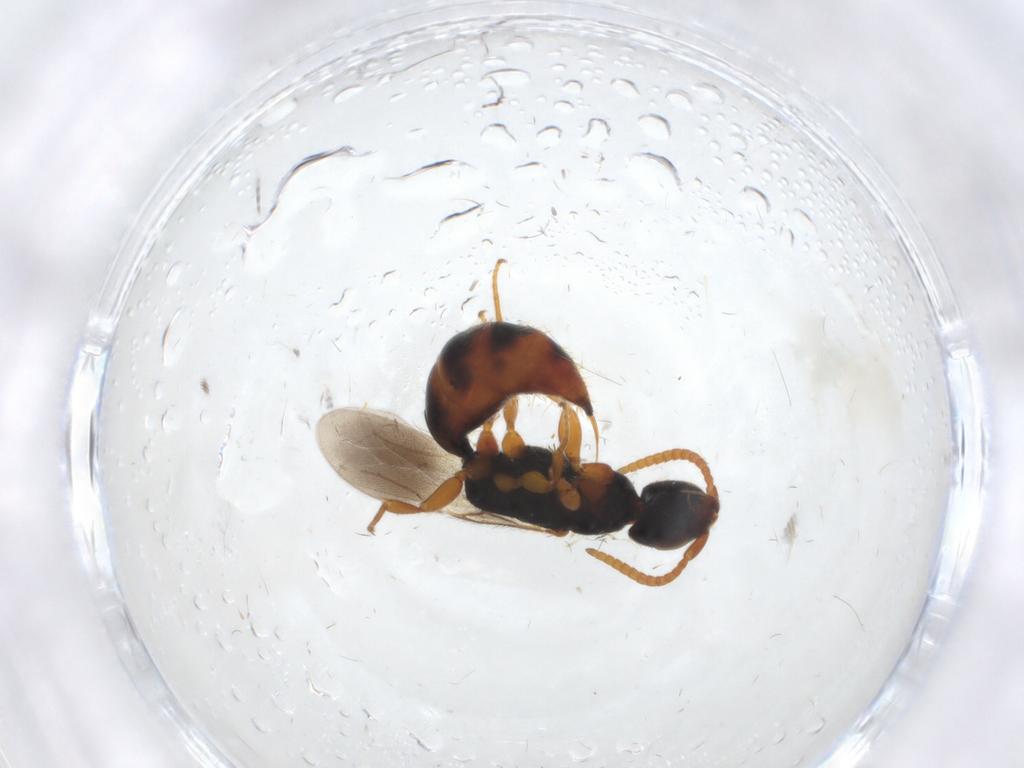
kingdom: Animalia
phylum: Arthropoda
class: Insecta
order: Hymenoptera
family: Bethylidae
